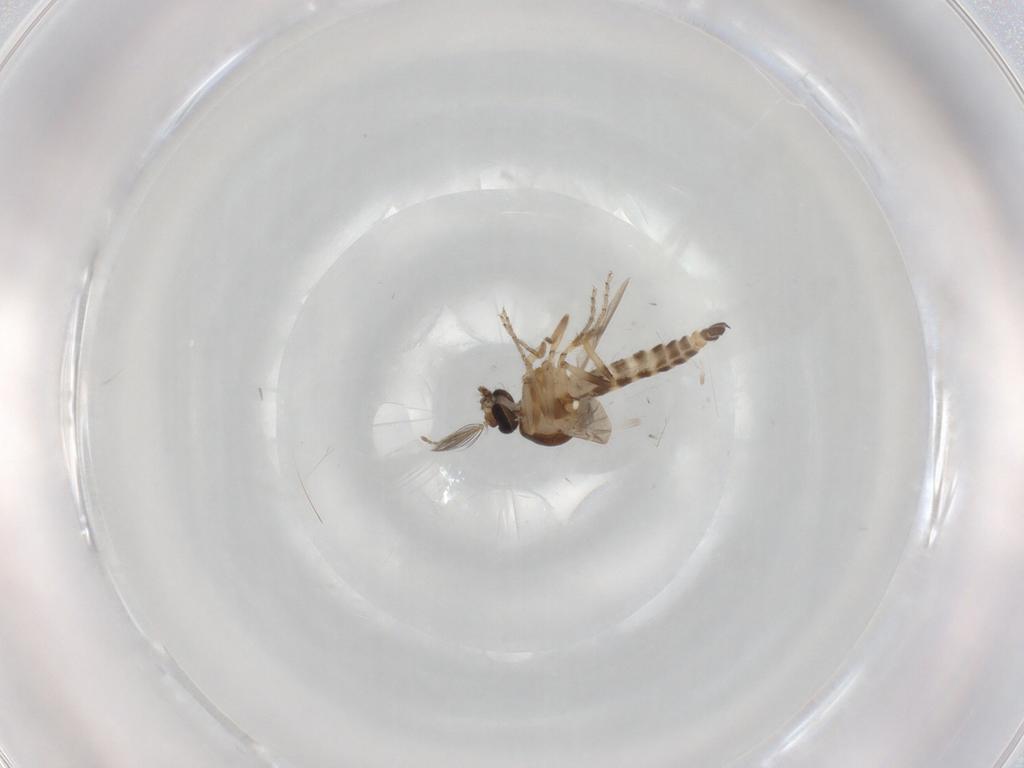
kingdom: Animalia
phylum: Arthropoda
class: Insecta
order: Diptera
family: Ceratopogonidae
